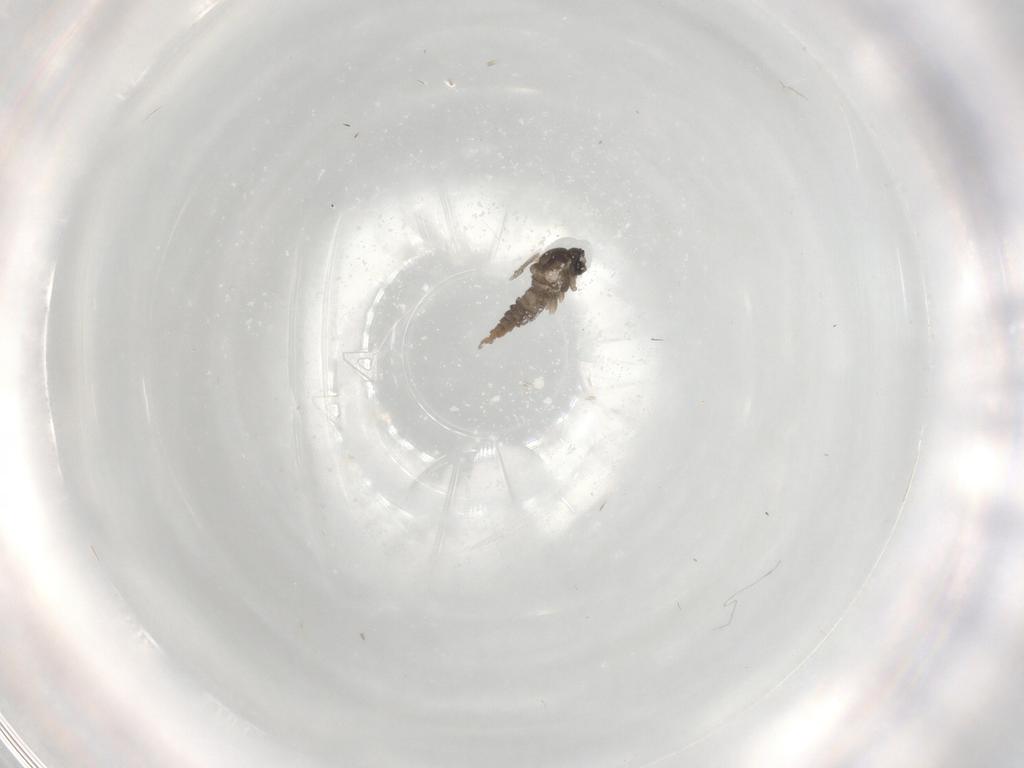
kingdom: Animalia
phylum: Arthropoda
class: Insecta
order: Diptera
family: Cecidomyiidae
